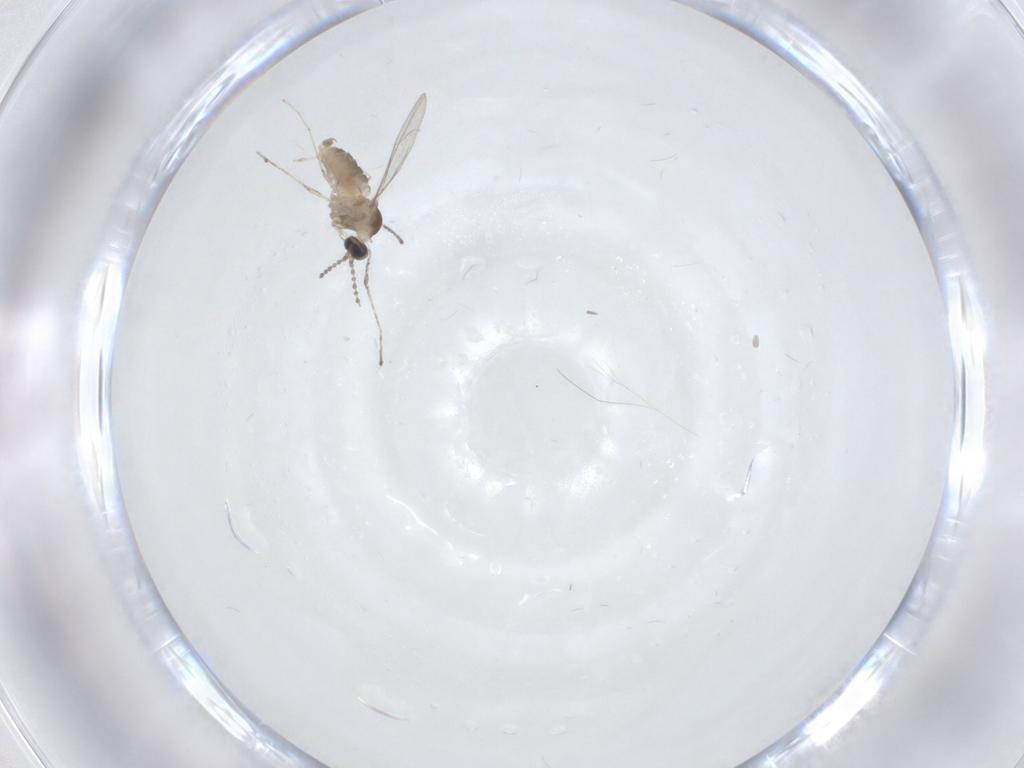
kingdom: Animalia
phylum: Arthropoda
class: Insecta
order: Diptera
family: Cecidomyiidae
